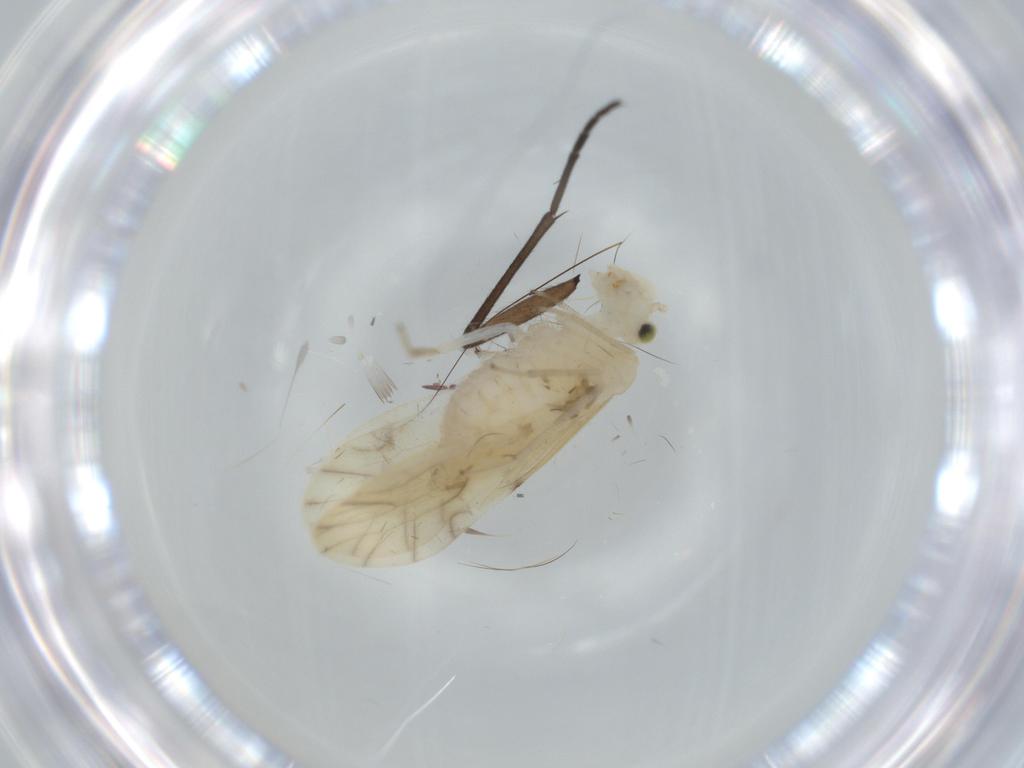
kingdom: Animalia
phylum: Arthropoda
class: Insecta
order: Psocodea
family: Caeciliusidae
